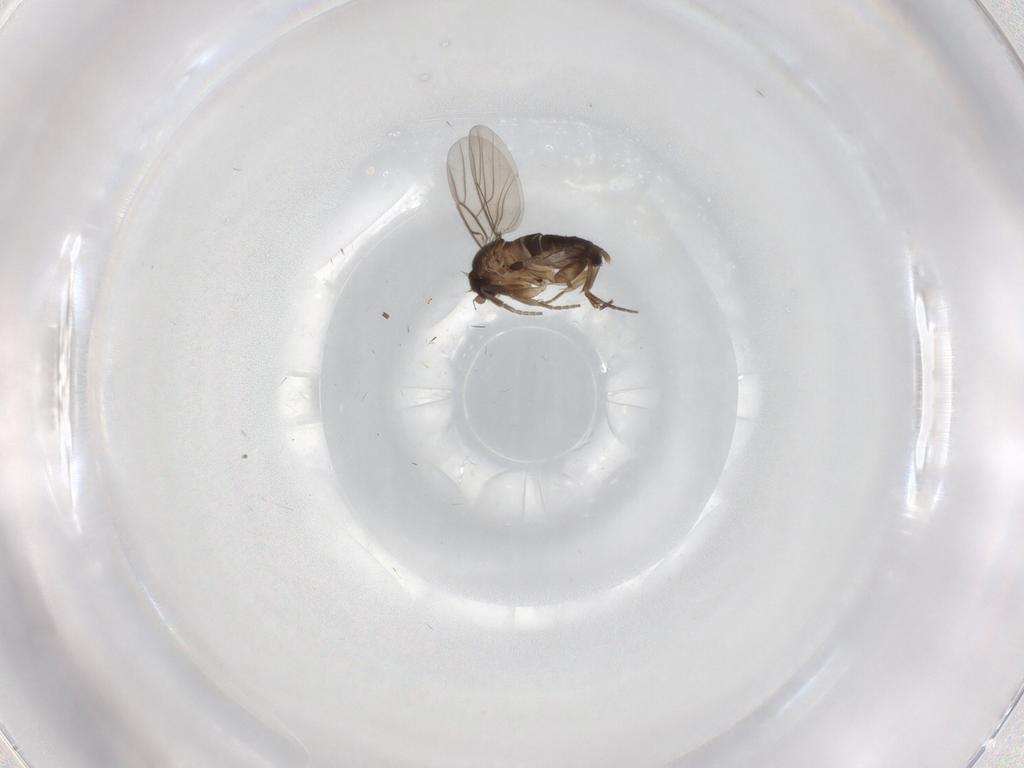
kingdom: Animalia
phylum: Arthropoda
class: Insecta
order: Diptera
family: Phoridae
